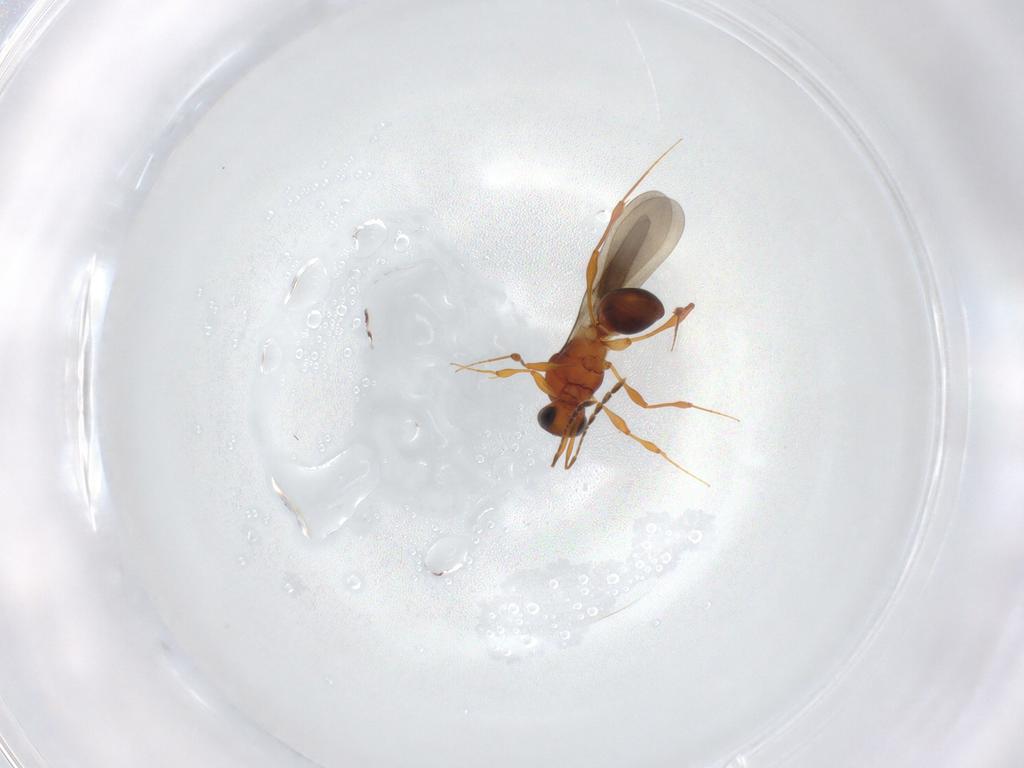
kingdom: Animalia
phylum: Arthropoda
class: Insecta
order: Hymenoptera
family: Platygastridae
